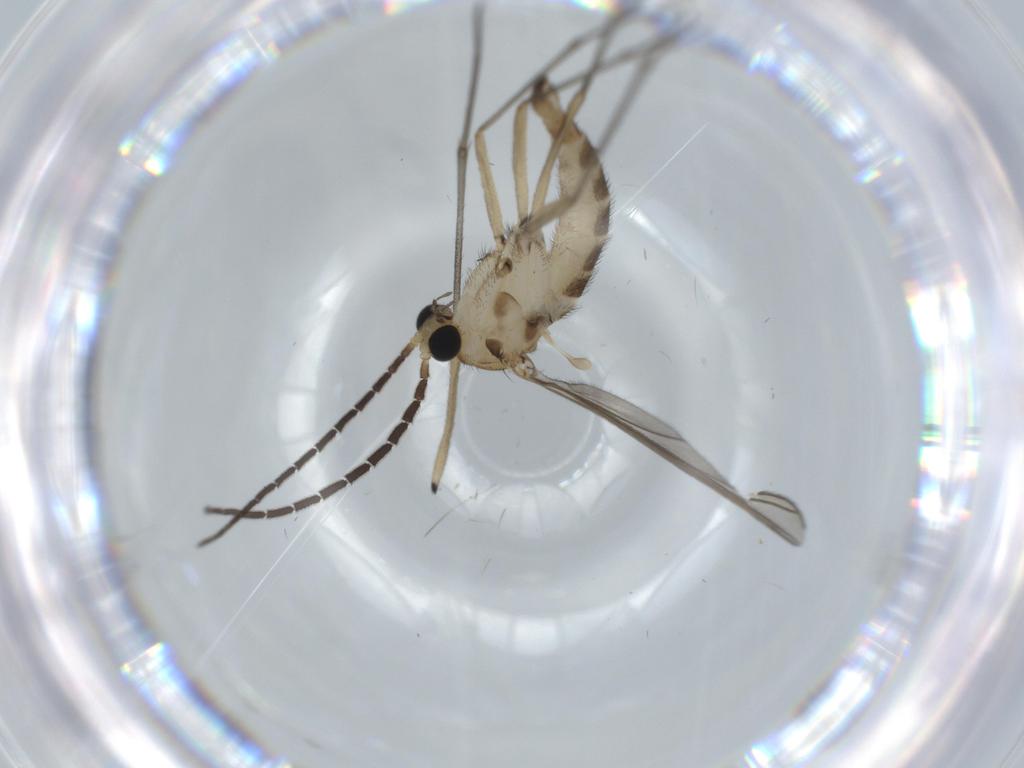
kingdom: Animalia
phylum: Arthropoda
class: Insecta
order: Diptera
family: Sciaridae
